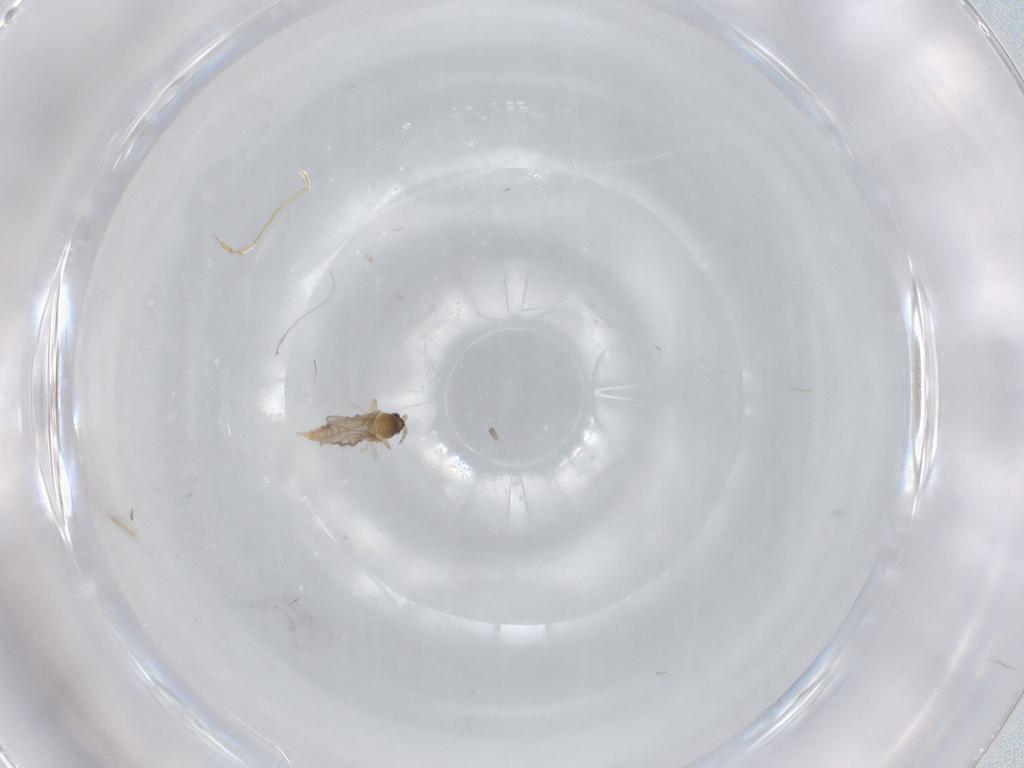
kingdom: Animalia
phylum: Arthropoda
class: Insecta
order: Diptera
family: Cecidomyiidae
